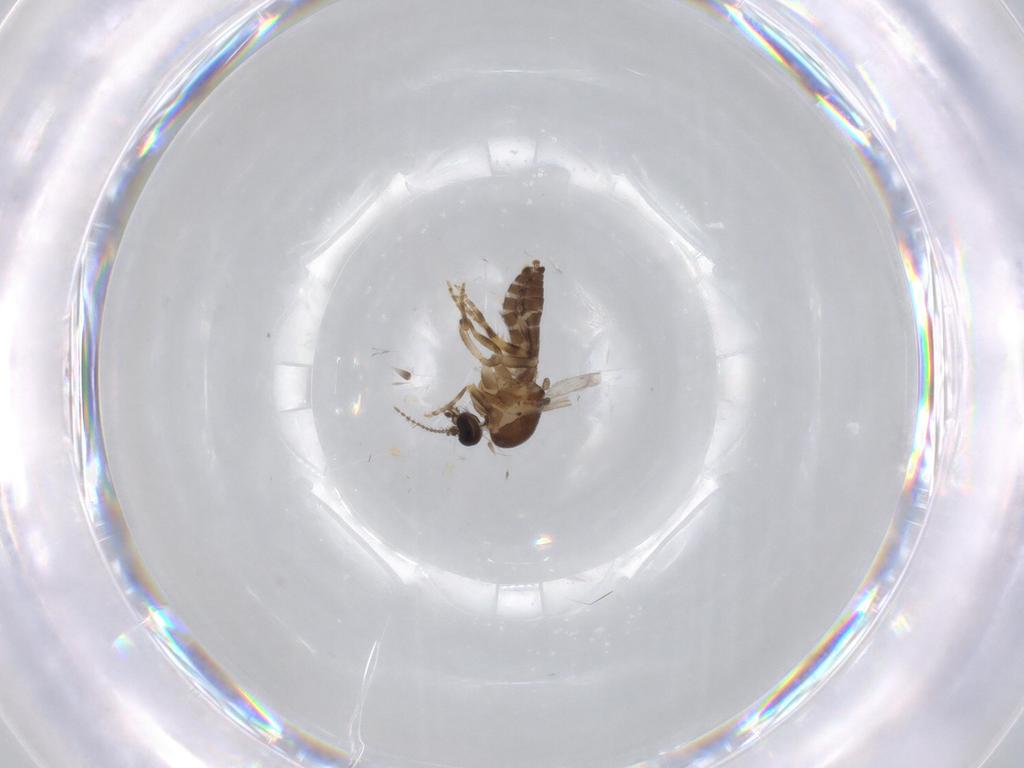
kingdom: Animalia
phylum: Arthropoda
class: Insecta
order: Diptera
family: Ceratopogonidae
